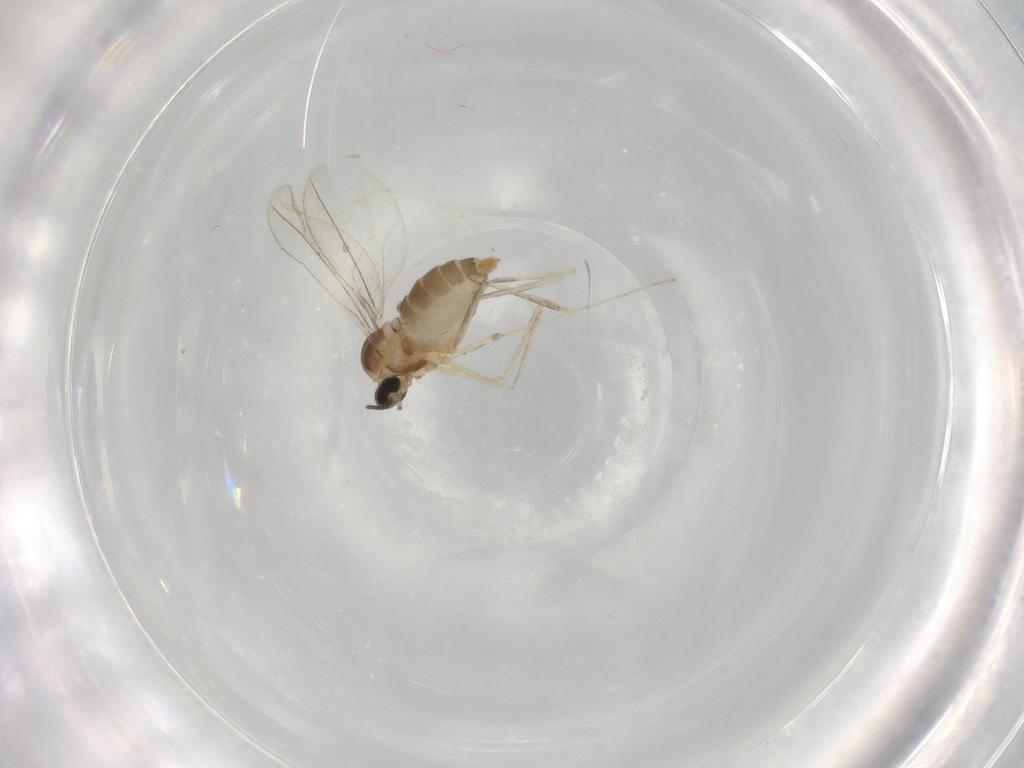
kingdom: Animalia
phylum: Arthropoda
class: Insecta
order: Diptera
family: Cecidomyiidae
